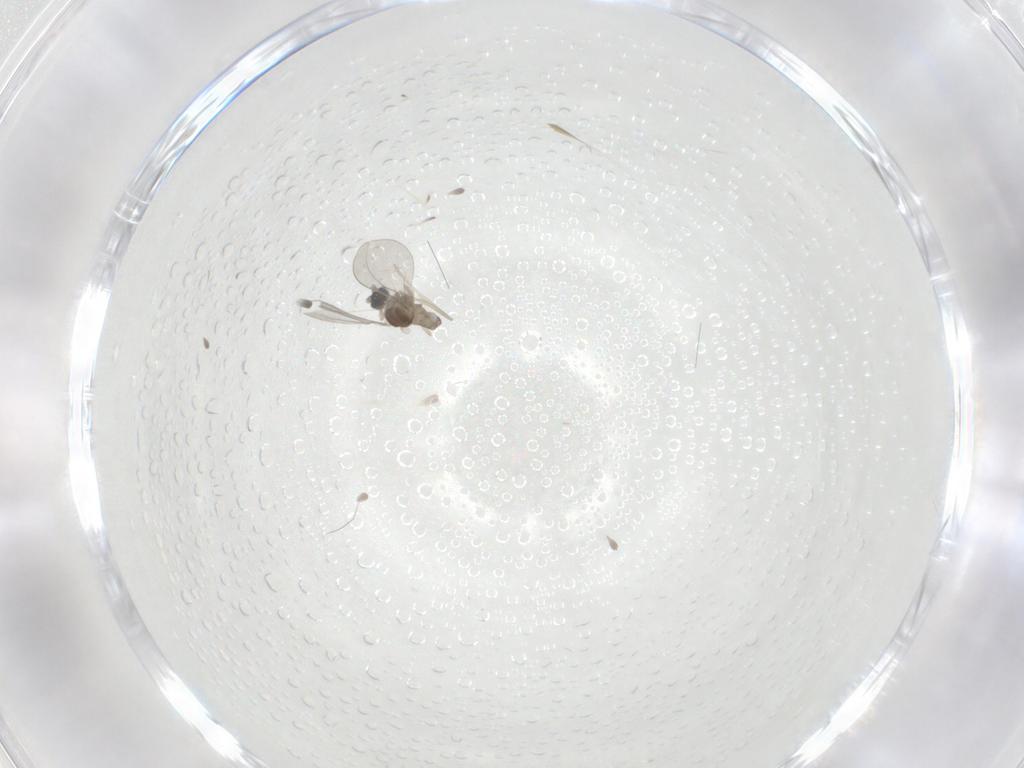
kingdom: Animalia
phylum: Arthropoda
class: Insecta
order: Diptera
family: Cecidomyiidae
